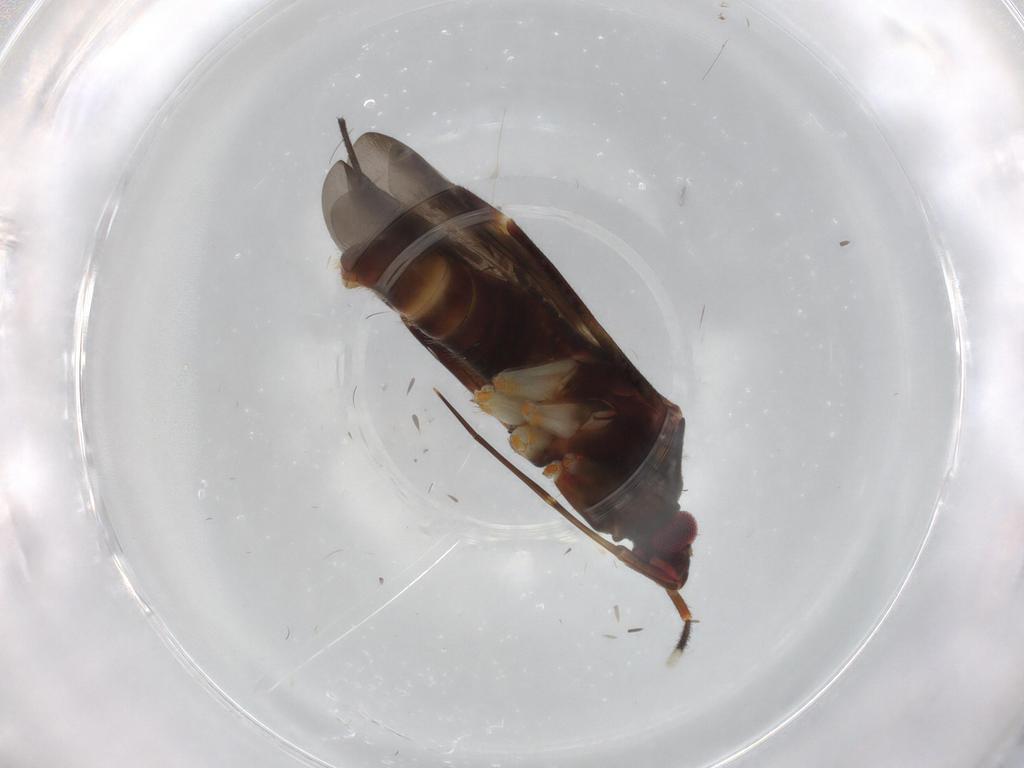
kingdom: Animalia
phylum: Arthropoda
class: Insecta
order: Hemiptera
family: Miridae
